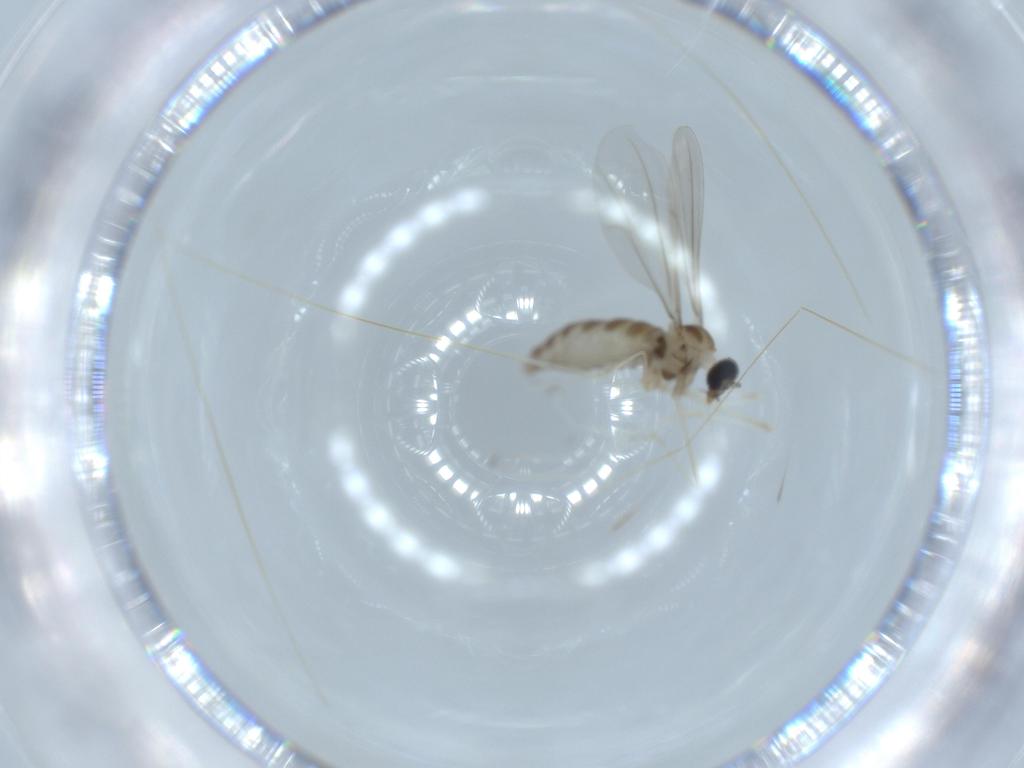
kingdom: Animalia
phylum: Arthropoda
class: Insecta
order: Diptera
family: Cecidomyiidae
